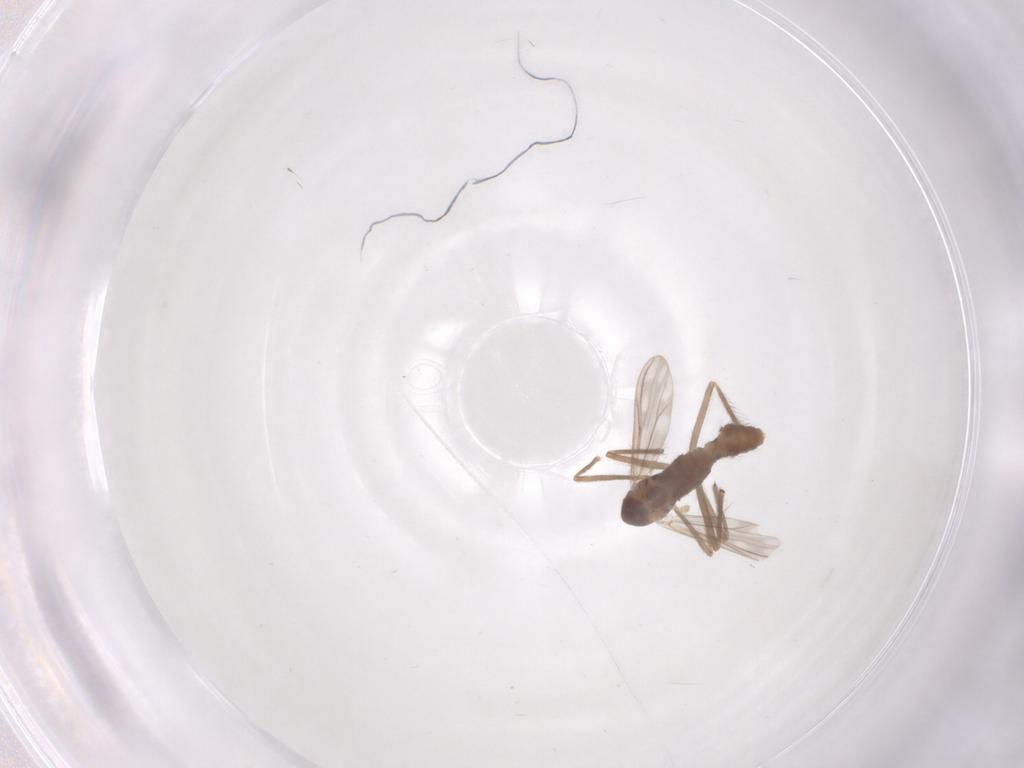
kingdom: Animalia
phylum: Arthropoda
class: Insecta
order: Diptera
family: Chironomidae
